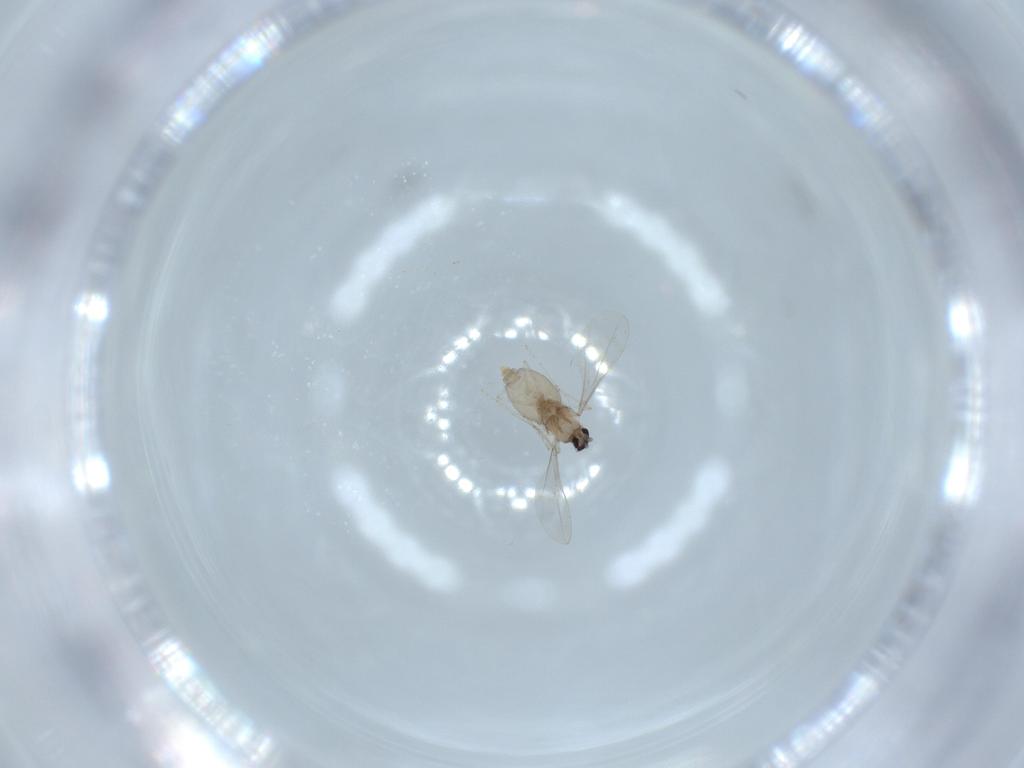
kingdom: Animalia
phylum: Arthropoda
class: Insecta
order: Diptera
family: Cecidomyiidae
